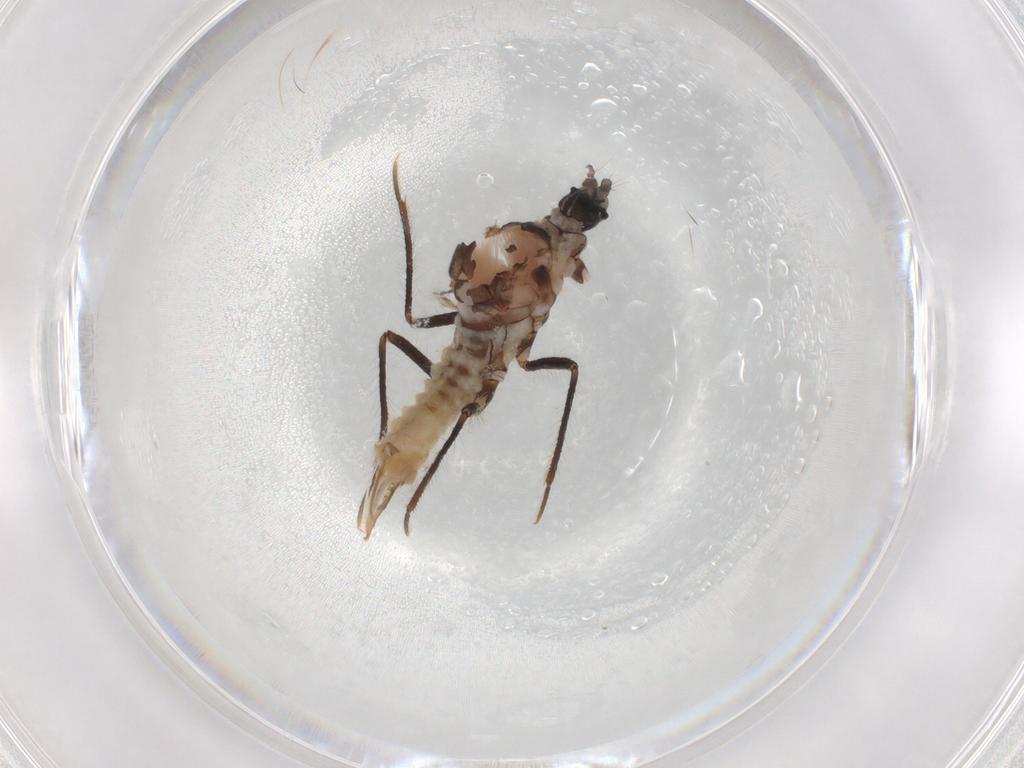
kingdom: Animalia
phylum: Arthropoda
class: Insecta
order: Hemiptera
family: Putoidae
